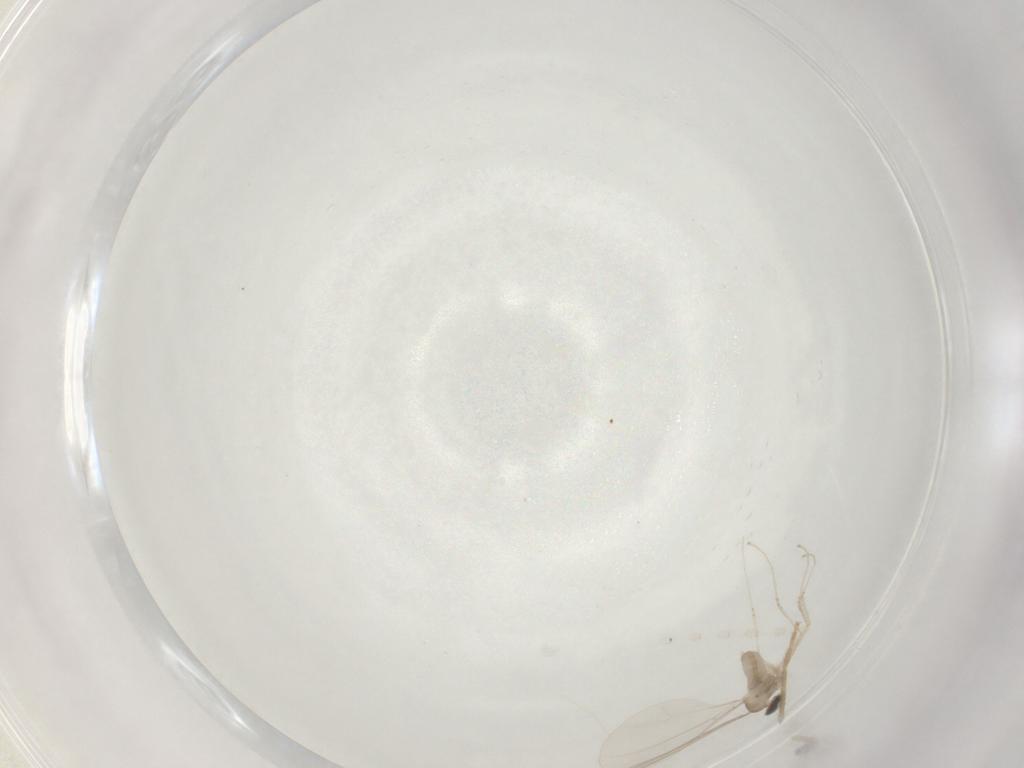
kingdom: Animalia
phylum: Arthropoda
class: Insecta
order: Diptera
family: Chironomidae
